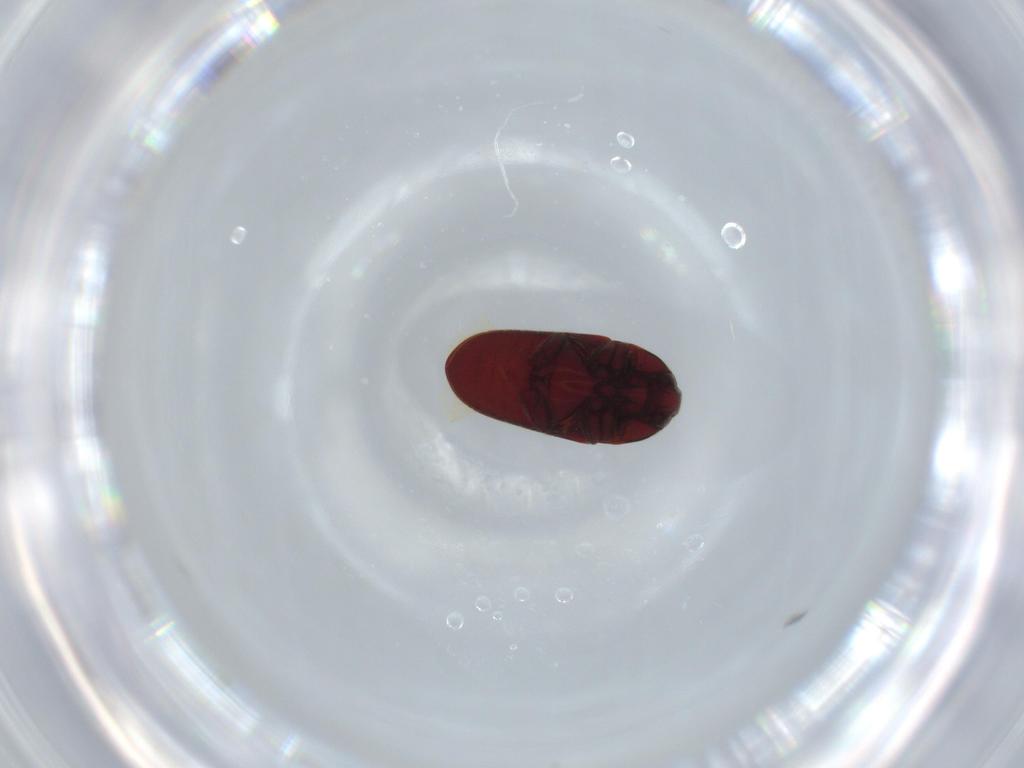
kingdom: Animalia
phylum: Arthropoda
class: Insecta
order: Coleoptera
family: Throscidae
